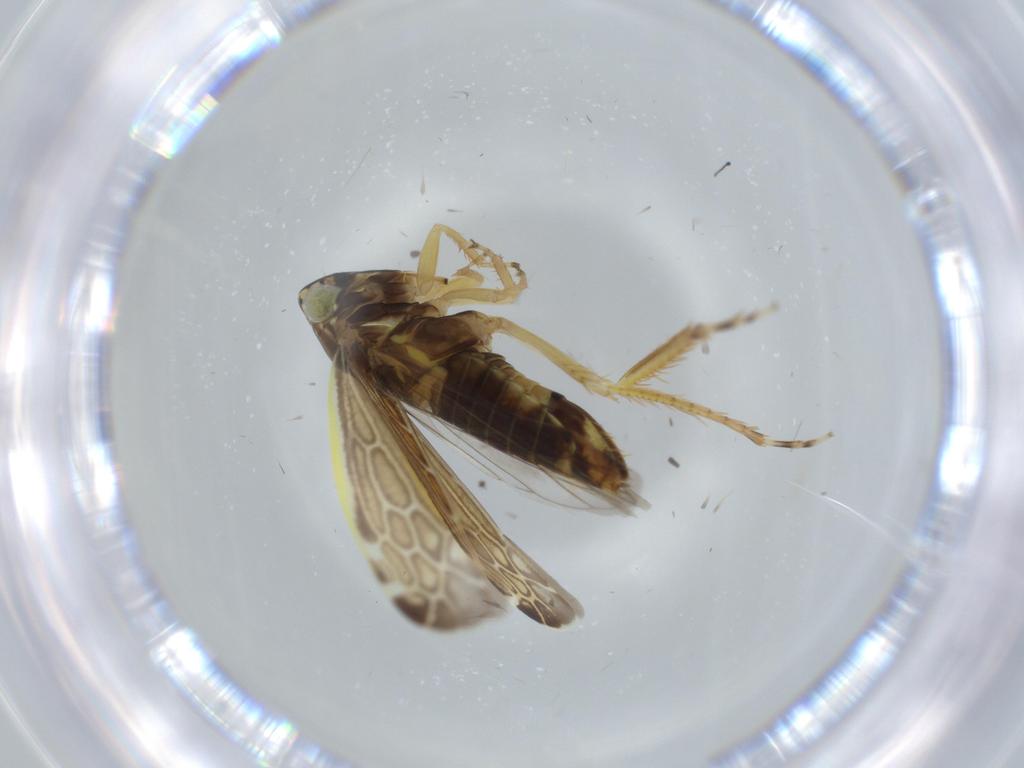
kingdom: Animalia
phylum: Arthropoda
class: Insecta
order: Hemiptera
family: Cicadellidae
